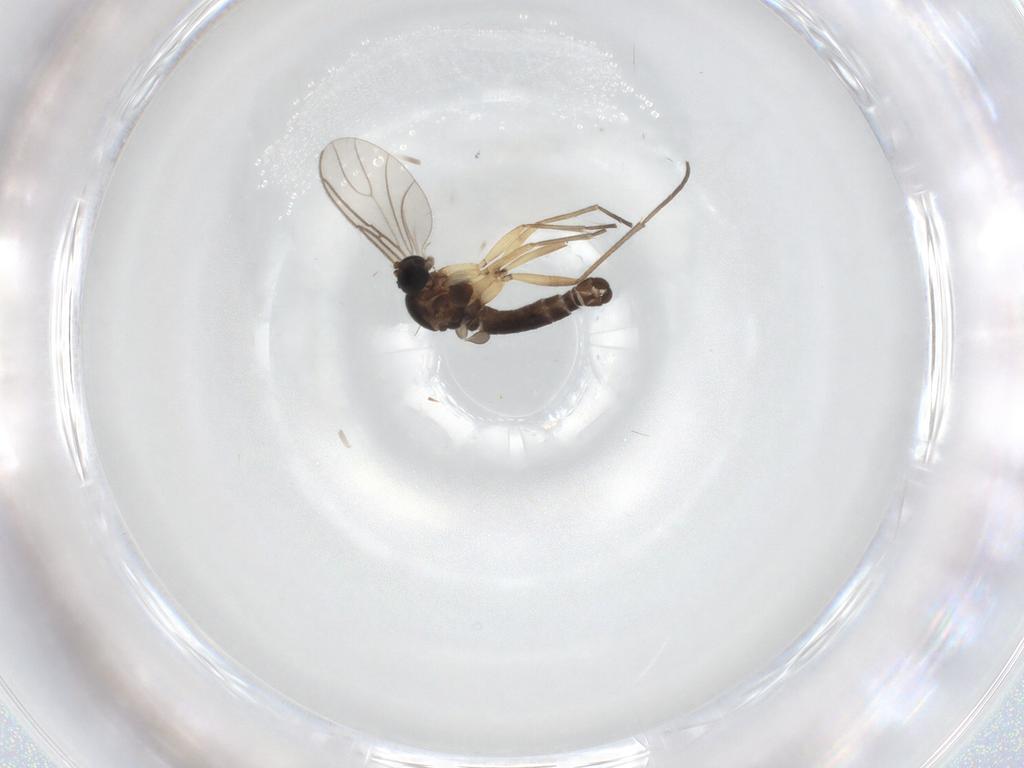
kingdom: Animalia
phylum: Arthropoda
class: Insecta
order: Diptera
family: Sciaridae
